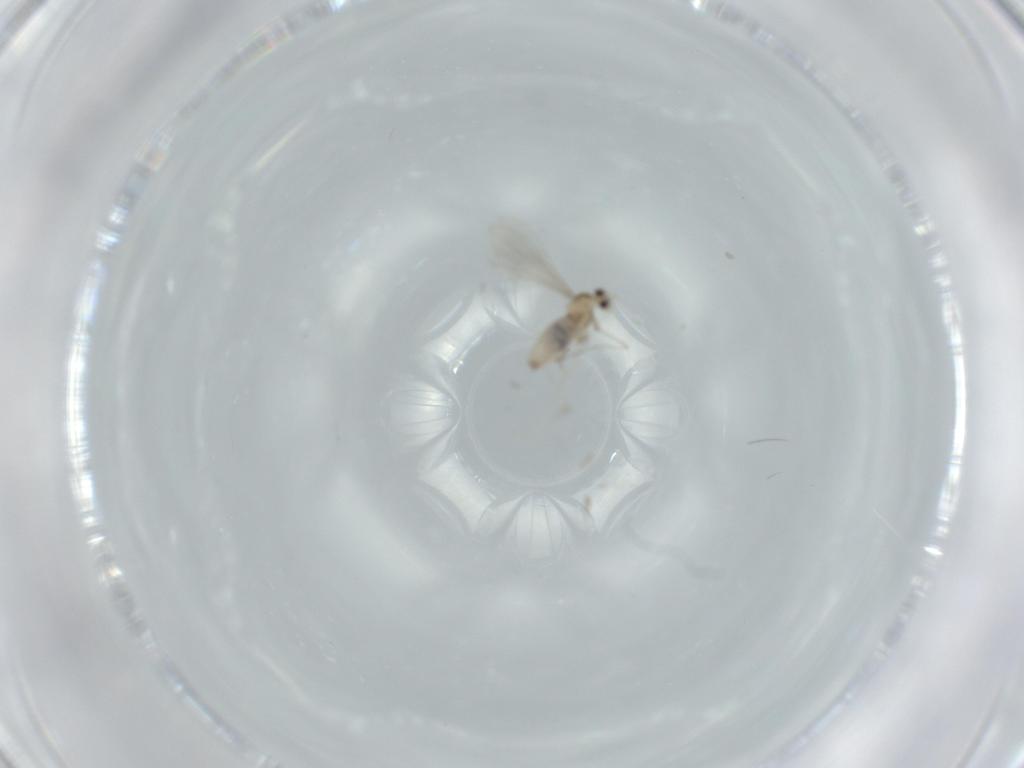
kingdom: Animalia
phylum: Arthropoda
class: Insecta
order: Diptera
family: Cecidomyiidae
